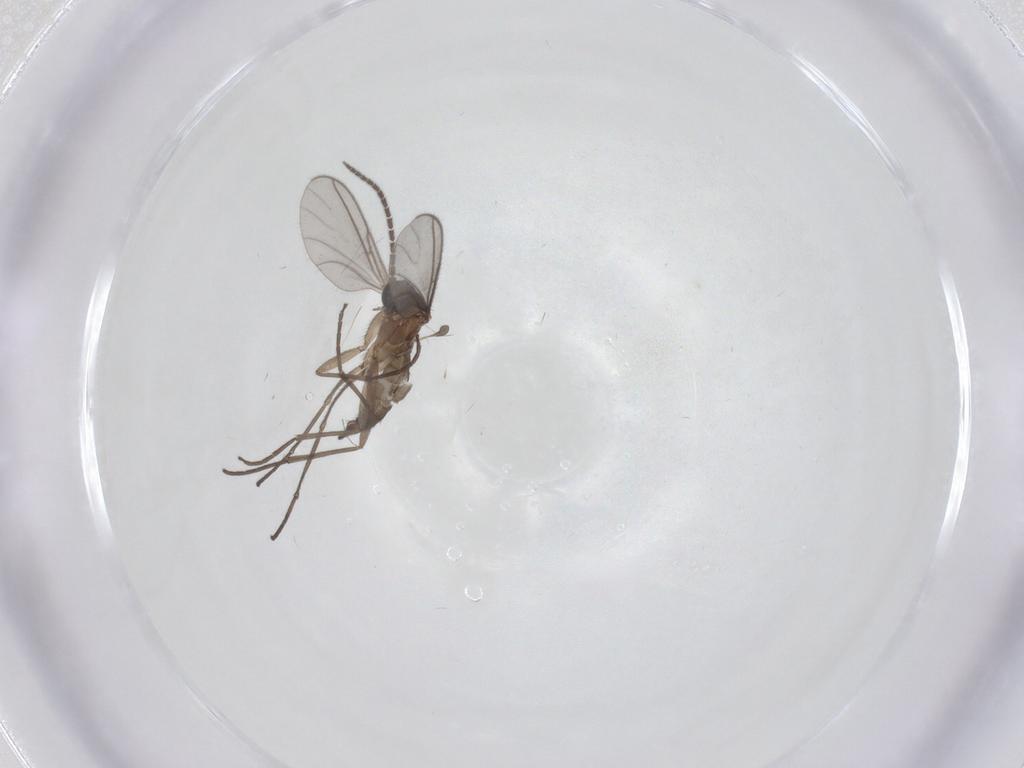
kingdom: Animalia
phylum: Arthropoda
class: Insecta
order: Diptera
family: Sciaridae
